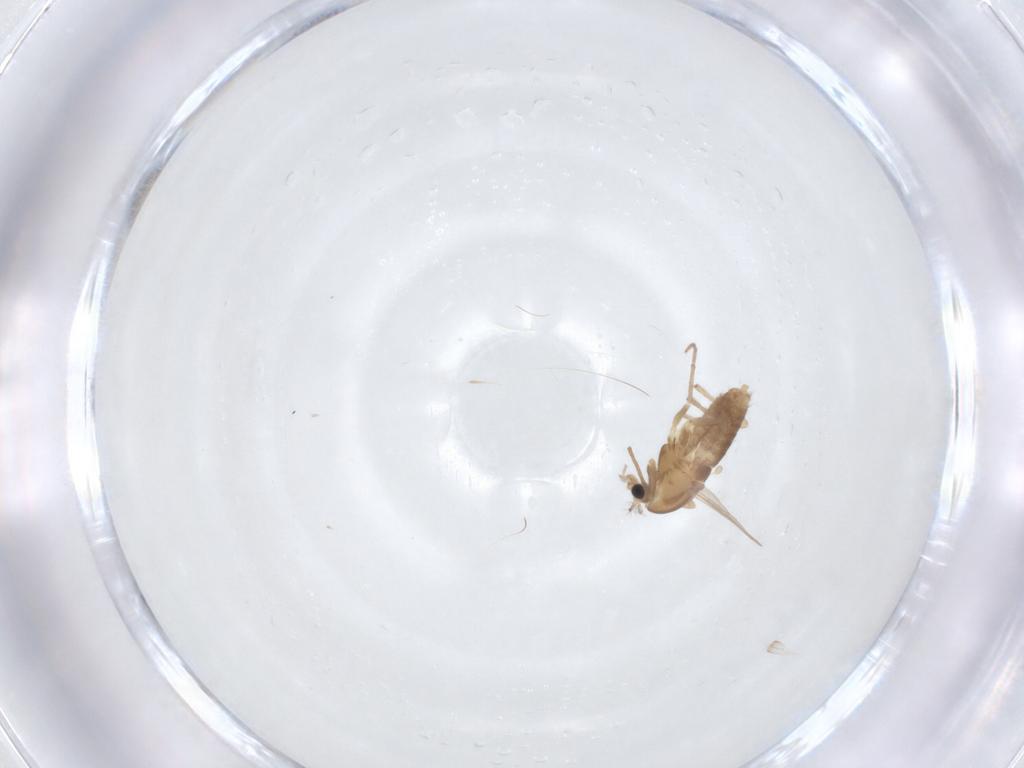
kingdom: Animalia
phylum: Arthropoda
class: Insecta
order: Diptera
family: Chironomidae
